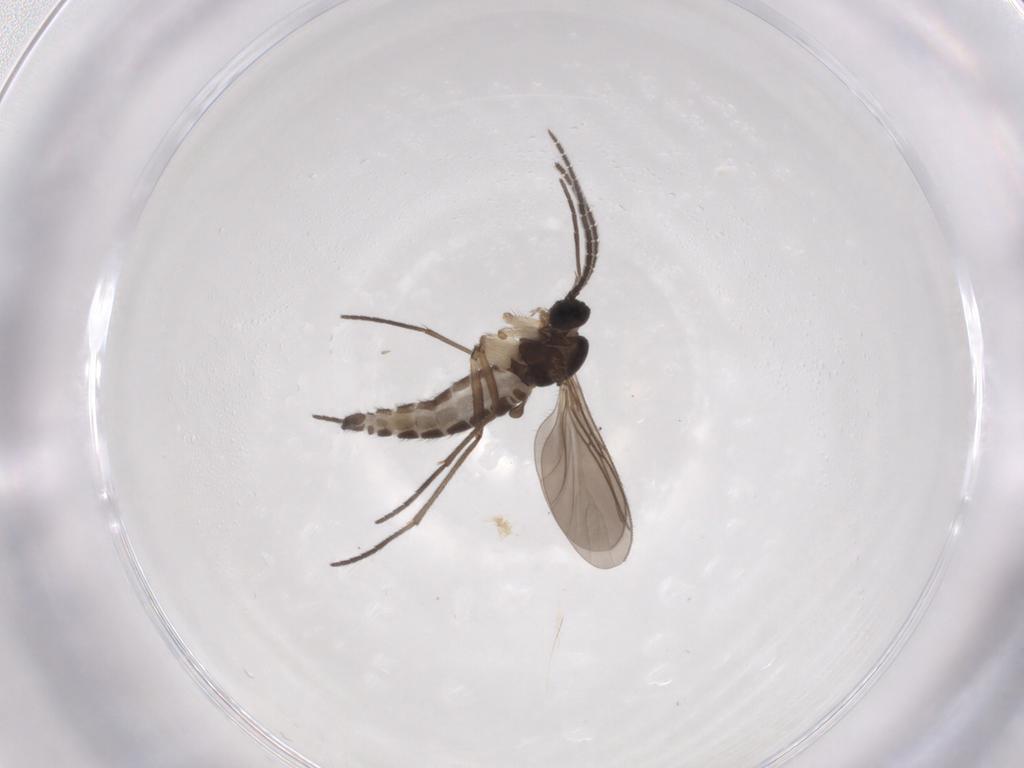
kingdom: Animalia
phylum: Arthropoda
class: Insecta
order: Diptera
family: Sciaridae
